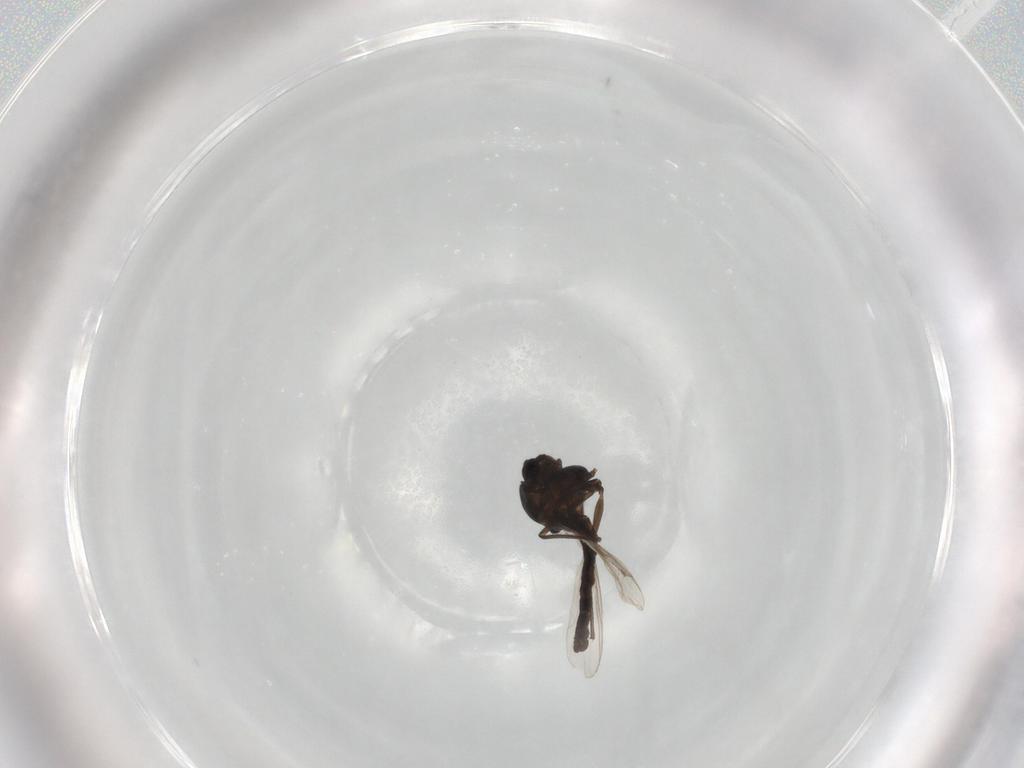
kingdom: Animalia
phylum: Arthropoda
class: Insecta
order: Diptera
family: Chironomidae
